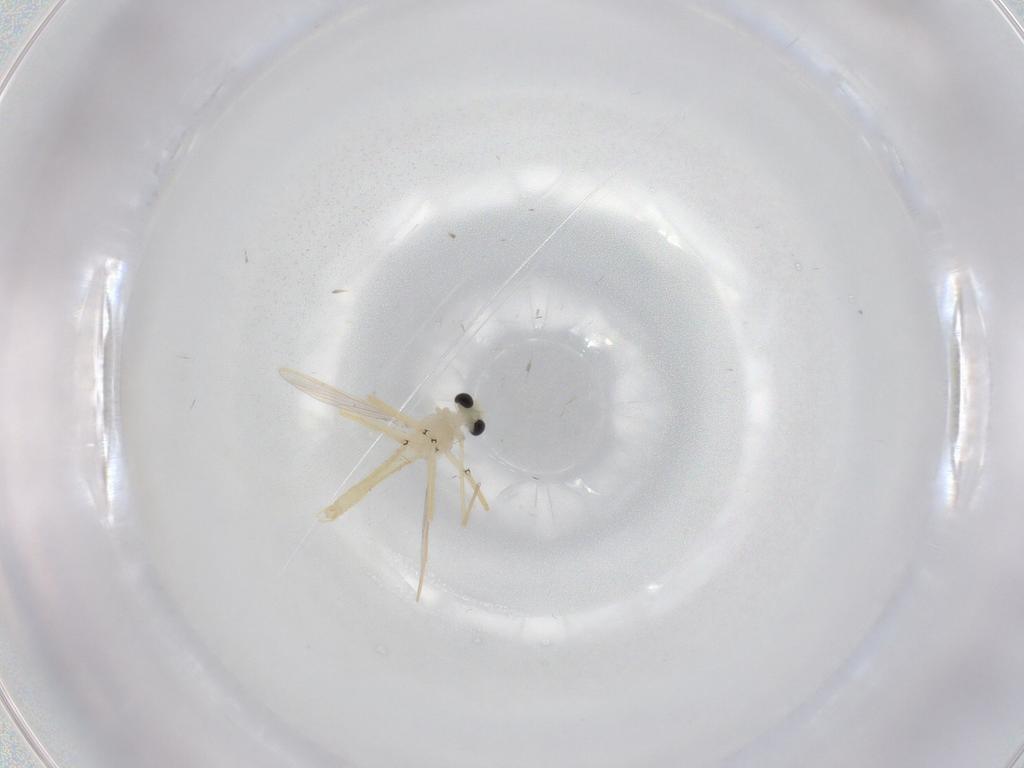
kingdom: Animalia
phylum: Arthropoda
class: Insecta
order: Diptera
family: Chironomidae
